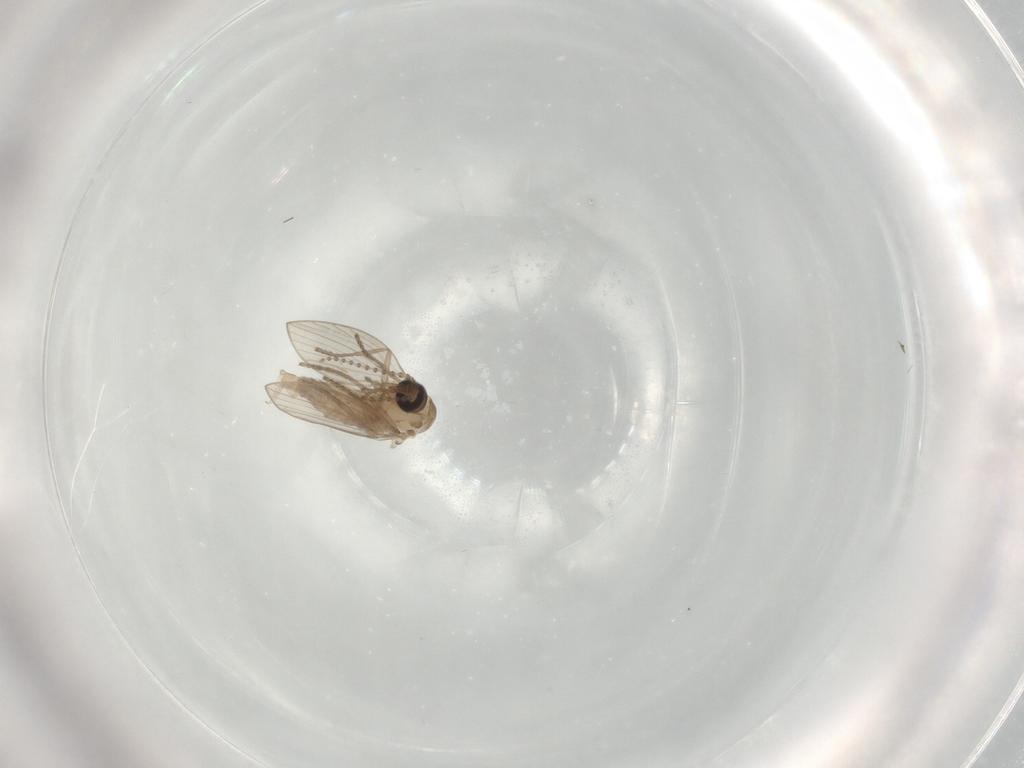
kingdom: Animalia
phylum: Arthropoda
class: Insecta
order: Diptera
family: Psychodidae
